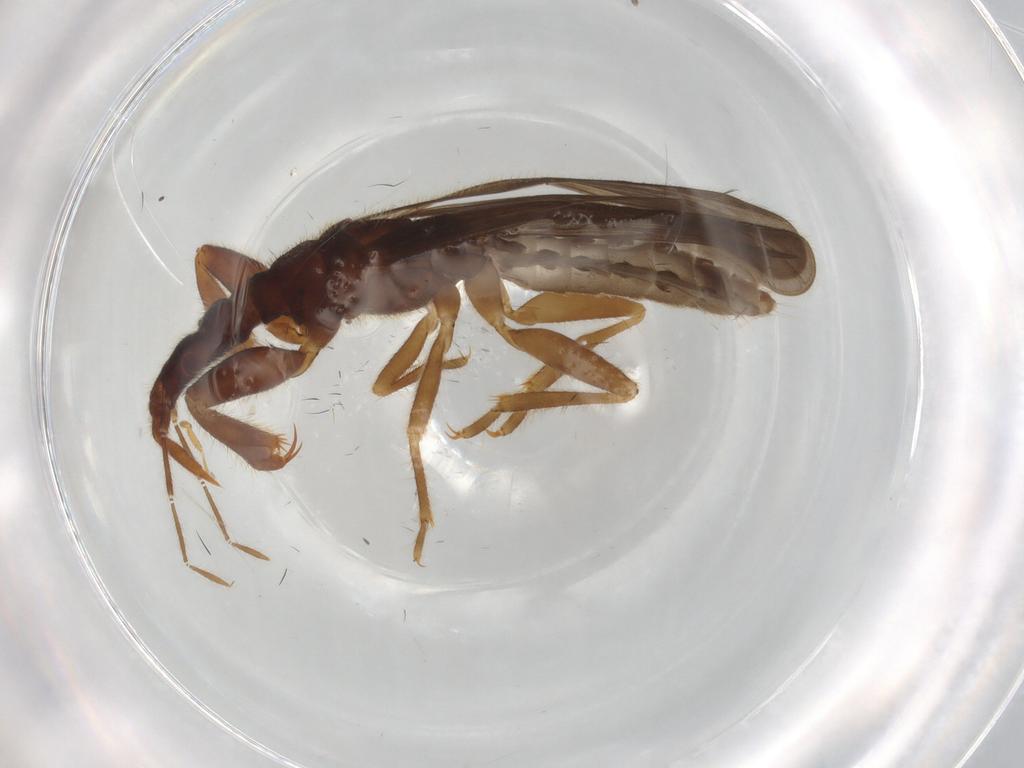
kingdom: Animalia
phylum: Arthropoda
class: Insecta
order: Hemiptera
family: Enicocephalidae
